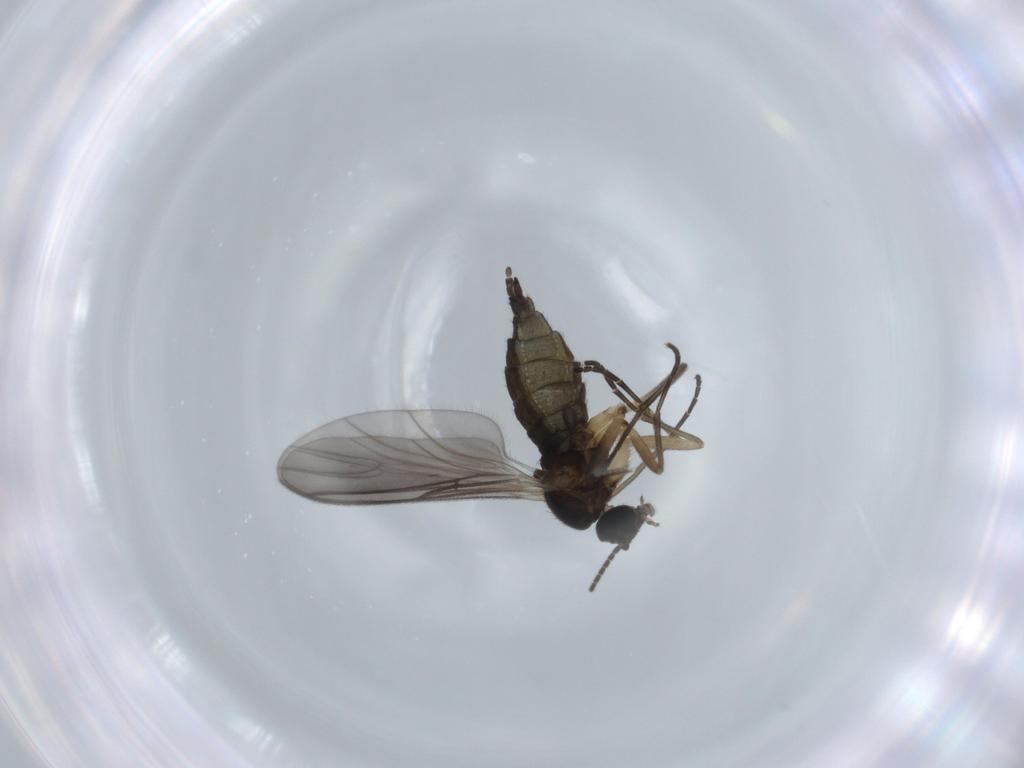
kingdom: Animalia
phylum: Arthropoda
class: Insecta
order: Diptera
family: Sciaridae
